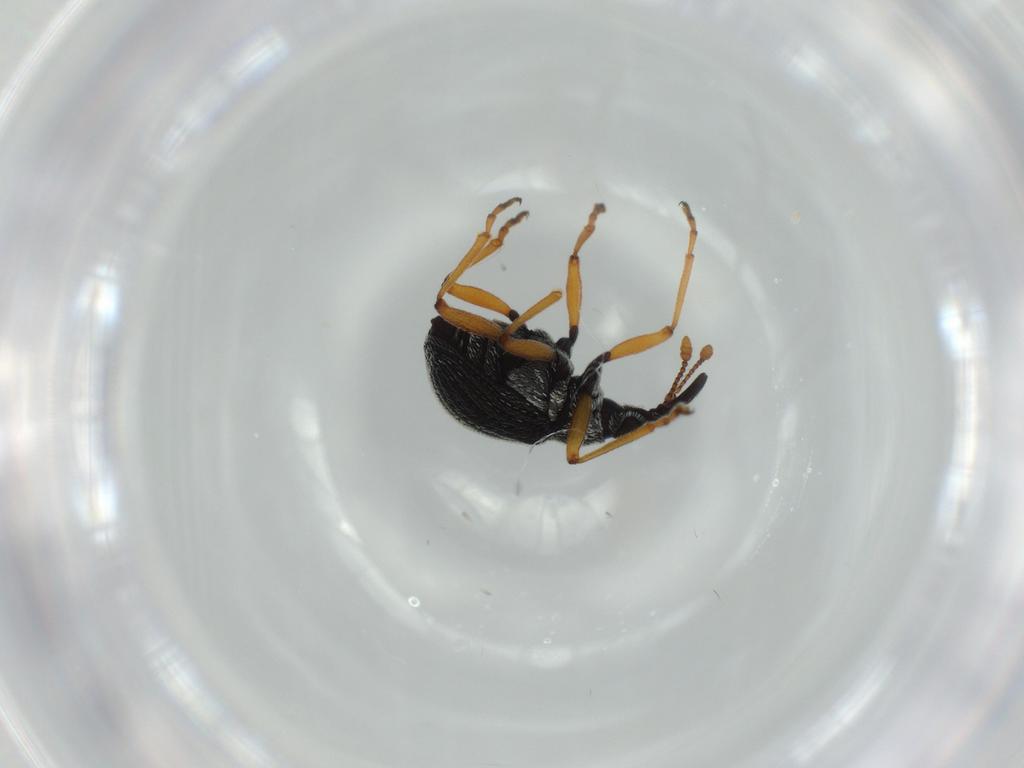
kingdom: Animalia
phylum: Arthropoda
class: Insecta
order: Coleoptera
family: Brentidae
